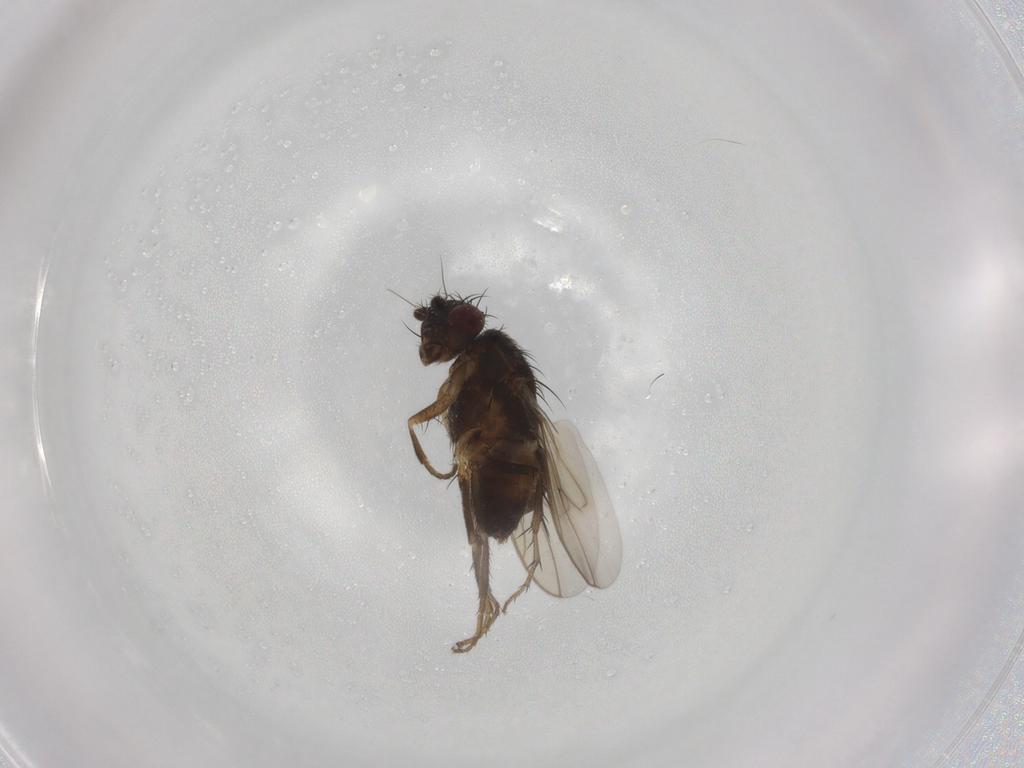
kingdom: Animalia
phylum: Arthropoda
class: Insecta
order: Diptera
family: Sphaeroceridae
